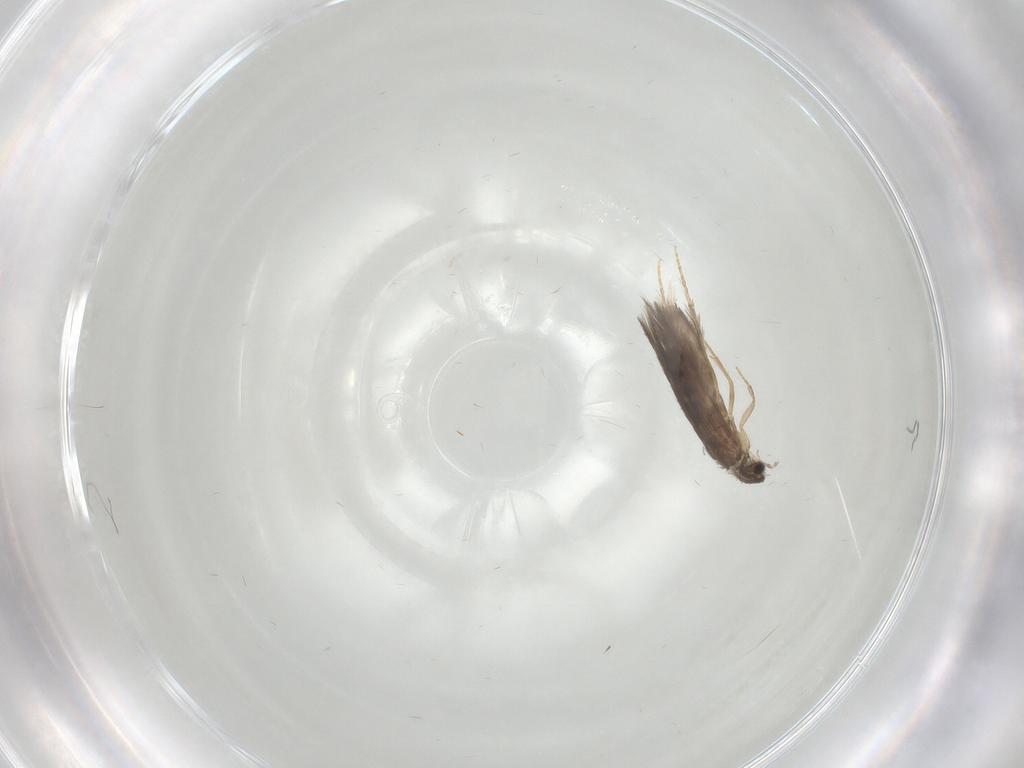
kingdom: Animalia
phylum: Arthropoda
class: Insecta
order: Trichoptera
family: Hydroptilidae
